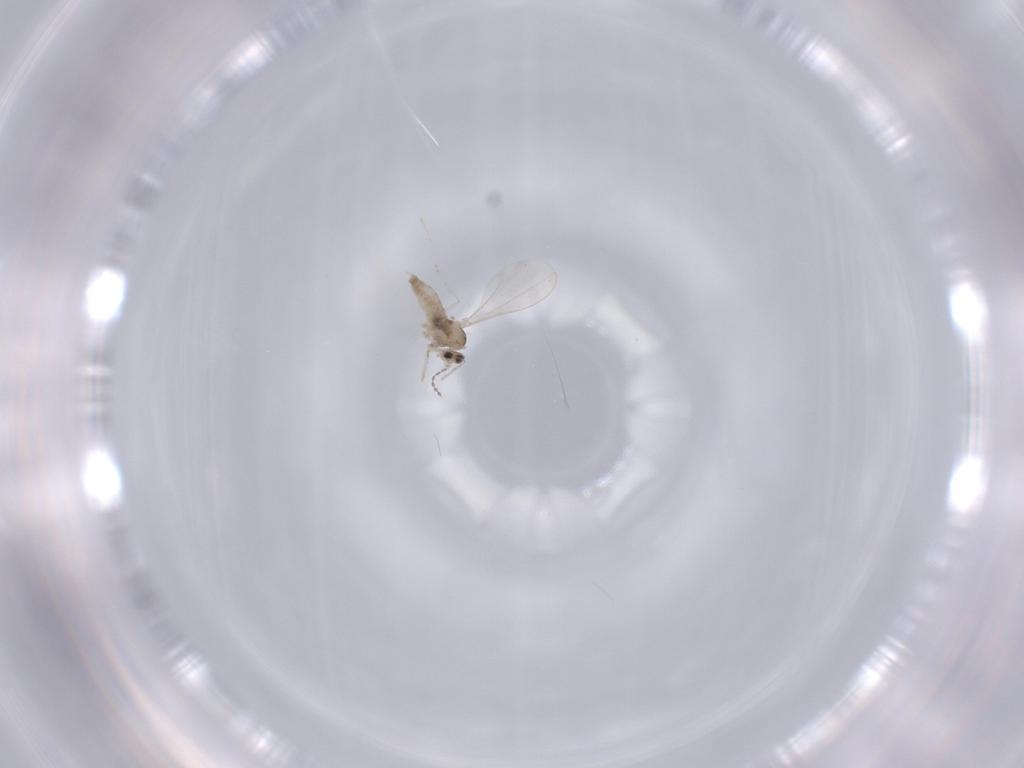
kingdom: Animalia
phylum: Arthropoda
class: Insecta
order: Diptera
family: Cecidomyiidae
